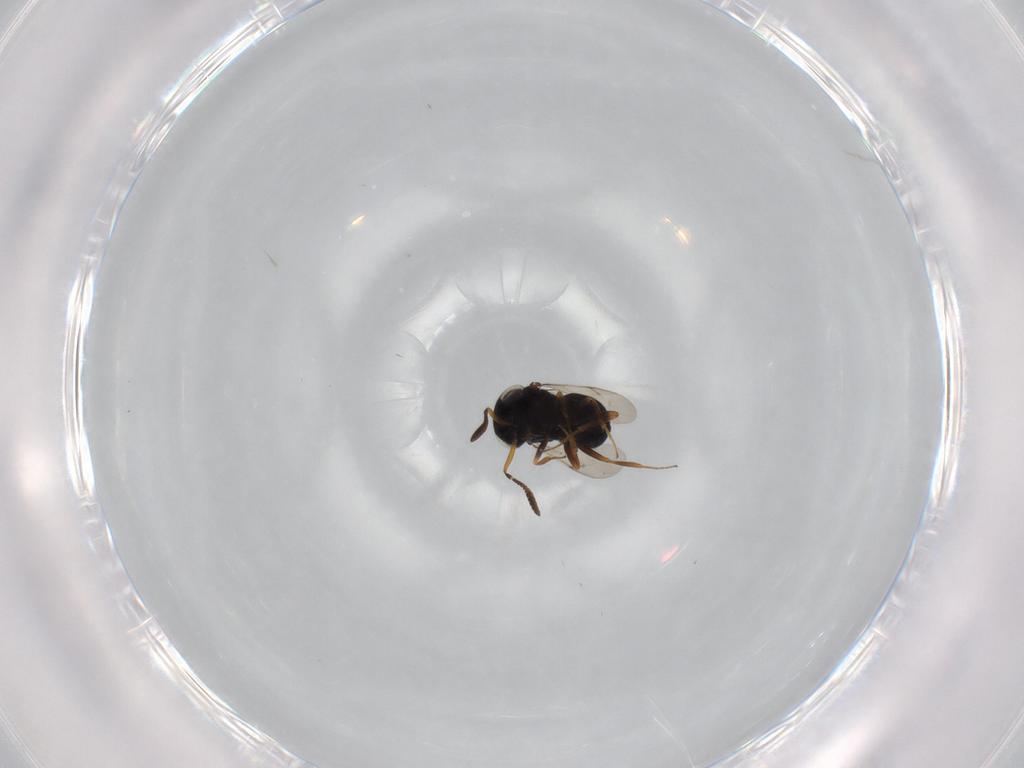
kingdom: Animalia
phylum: Arthropoda
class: Insecta
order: Hymenoptera
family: Scelionidae
